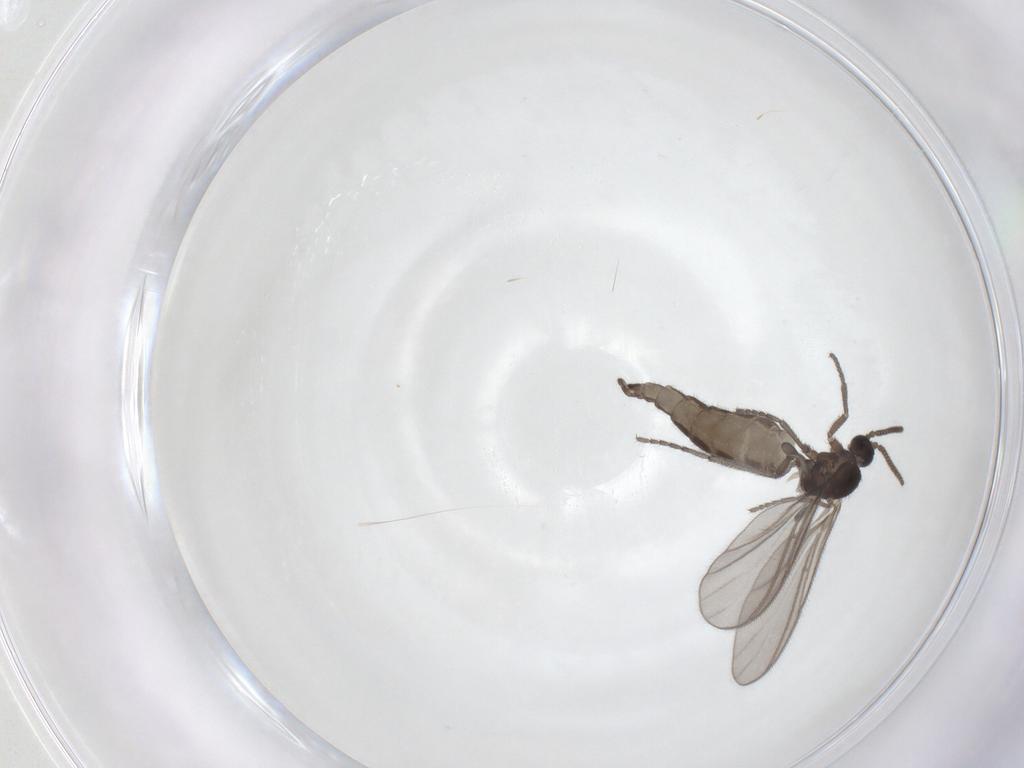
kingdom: Animalia
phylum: Arthropoda
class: Insecta
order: Diptera
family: Sciaridae
